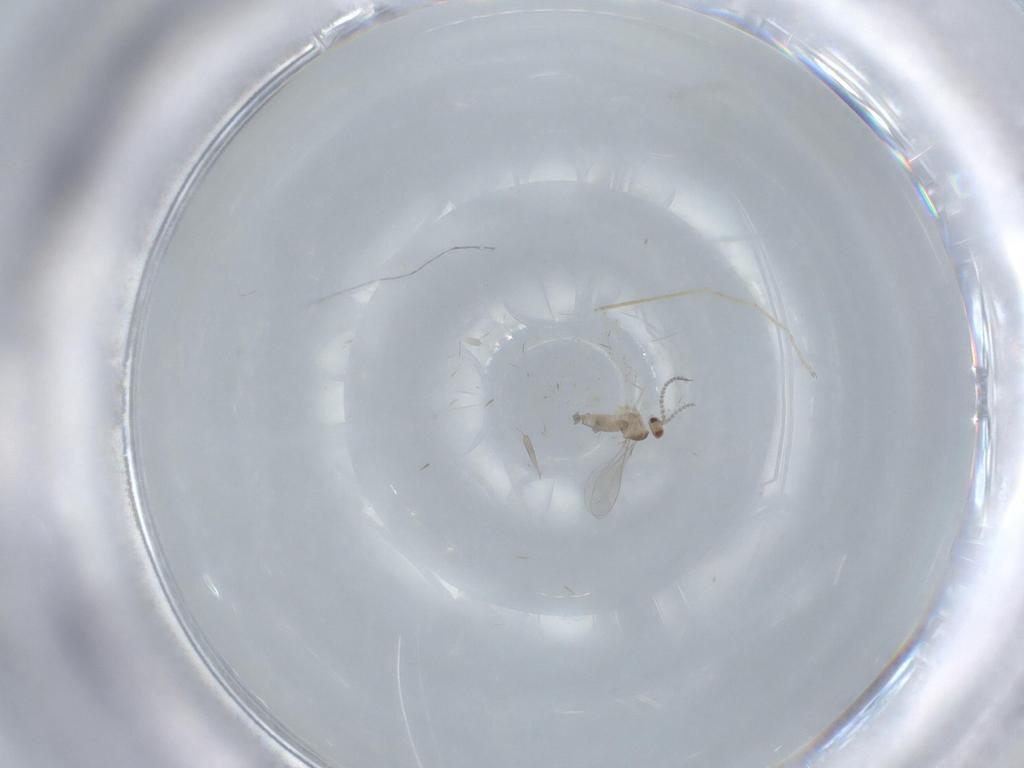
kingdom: Animalia
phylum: Arthropoda
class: Insecta
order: Diptera
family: Cecidomyiidae
